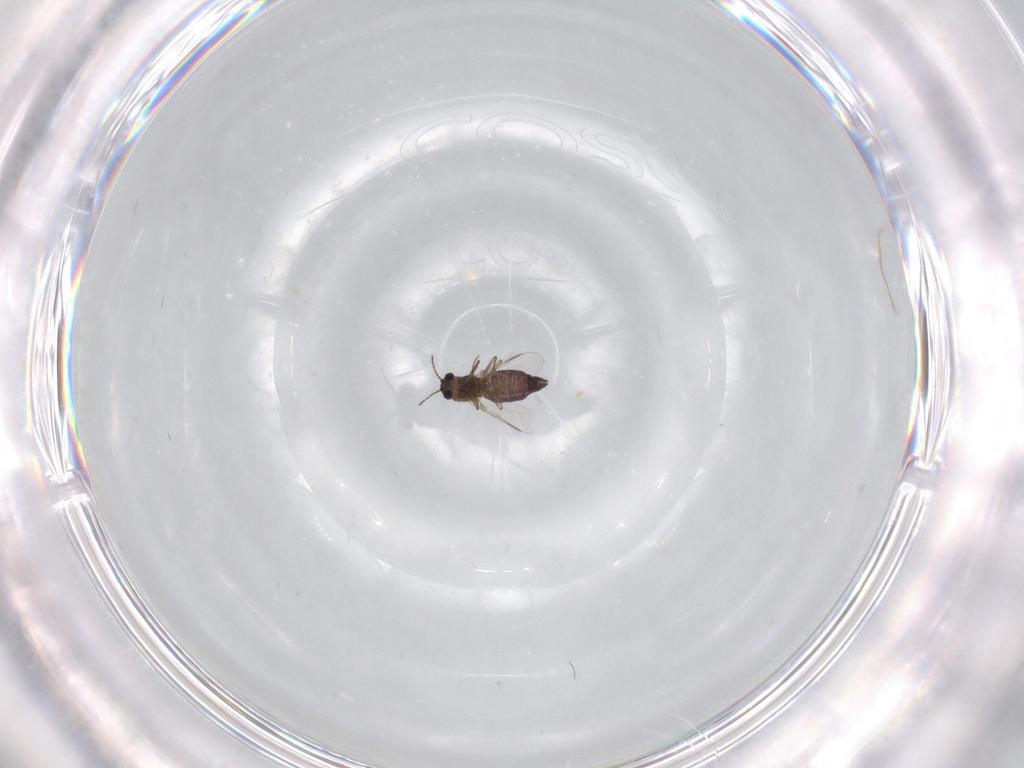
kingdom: Animalia
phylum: Arthropoda
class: Insecta
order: Diptera
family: Chironomidae
